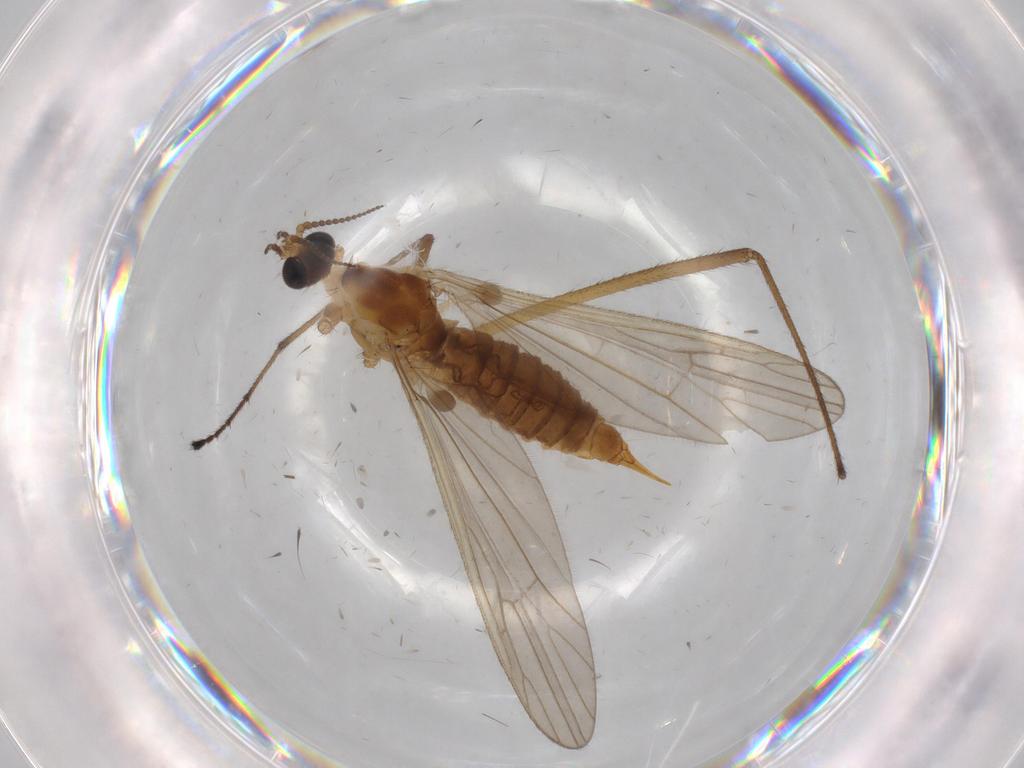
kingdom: Animalia
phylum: Arthropoda
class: Insecta
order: Diptera
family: Limoniidae
